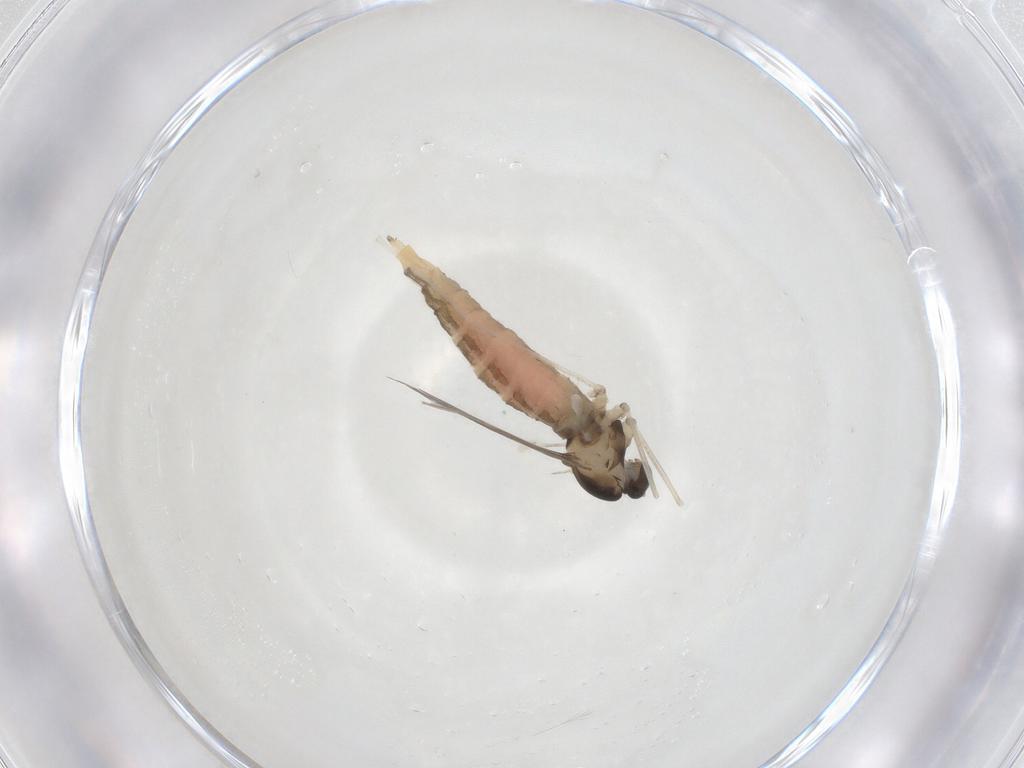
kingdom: Animalia
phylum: Arthropoda
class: Insecta
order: Diptera
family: Cecidomyiidae
